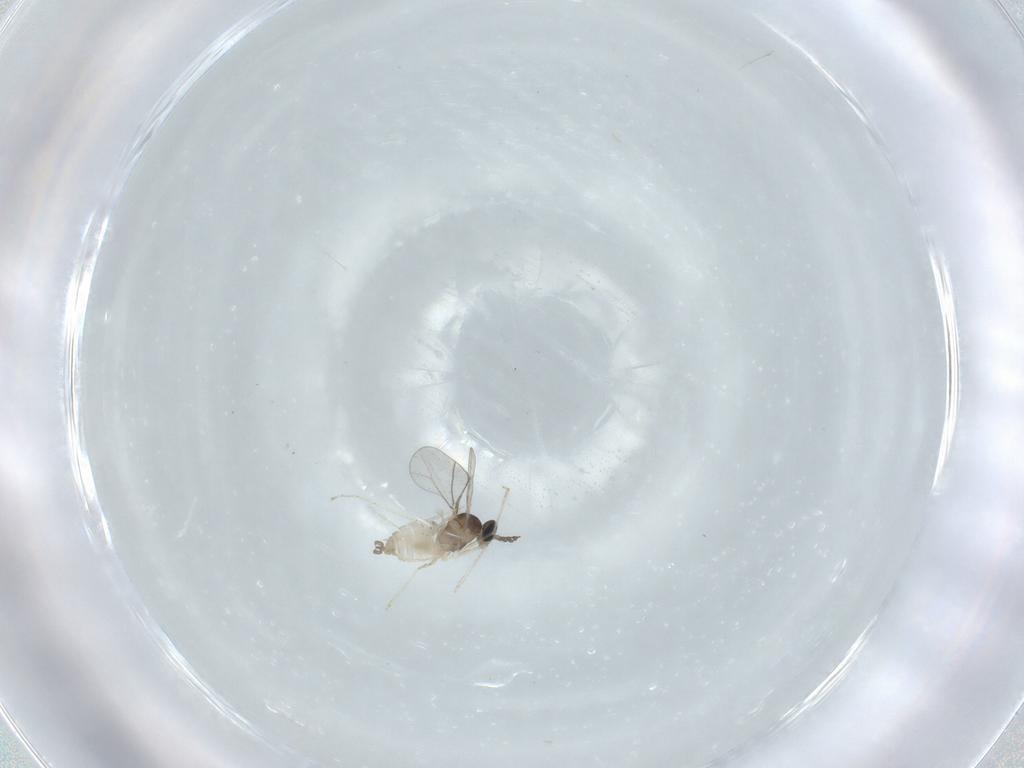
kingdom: Animalia
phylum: Arthropoda
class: Insecta
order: Diptera
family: Cecidomyiidae
